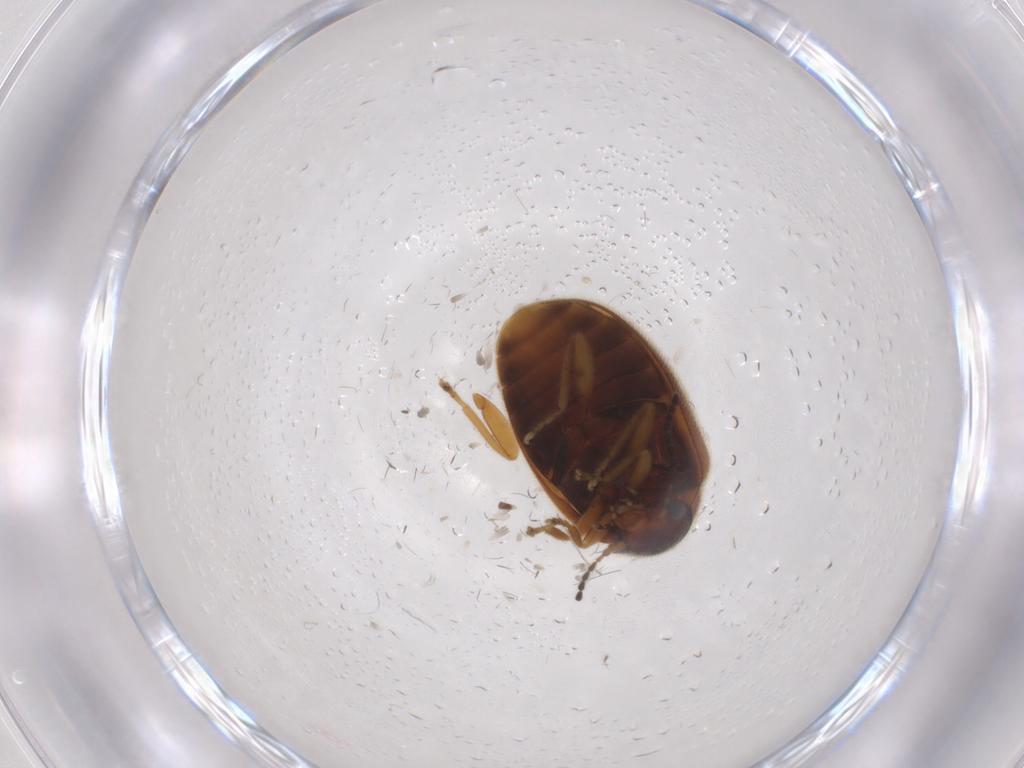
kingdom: Animalia
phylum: Arthropoda
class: Insecta
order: Coleoptera
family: Scirtidae
